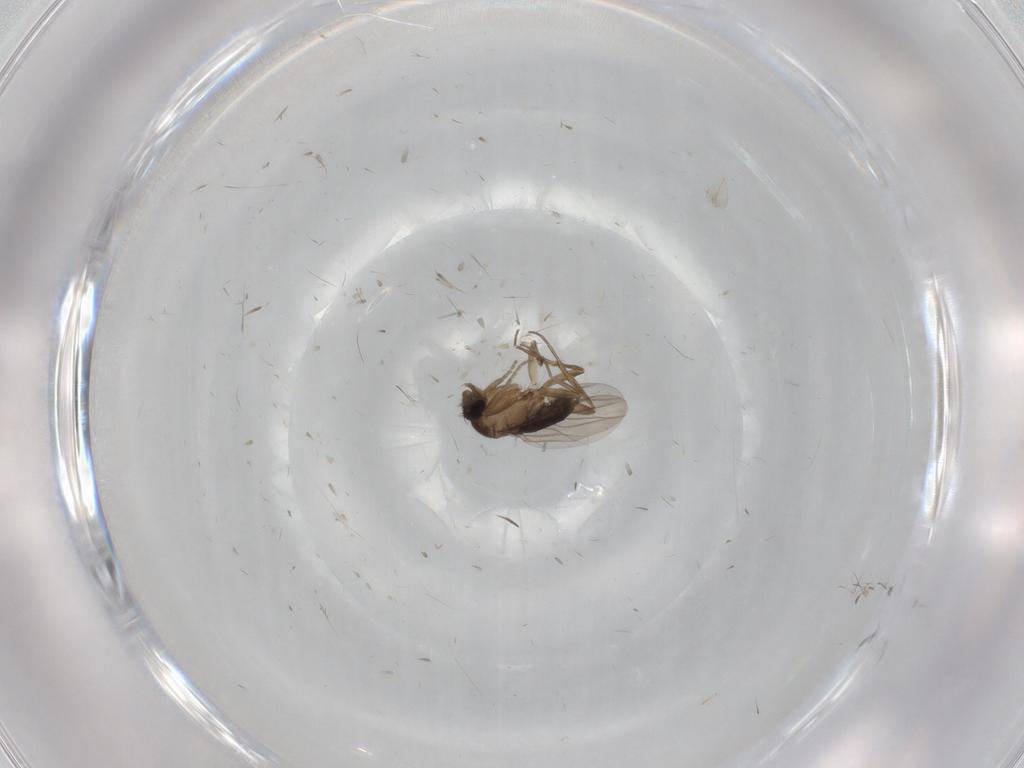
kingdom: Animalia
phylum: Arthropoda
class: Insecta
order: Diptera
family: Phoridae
